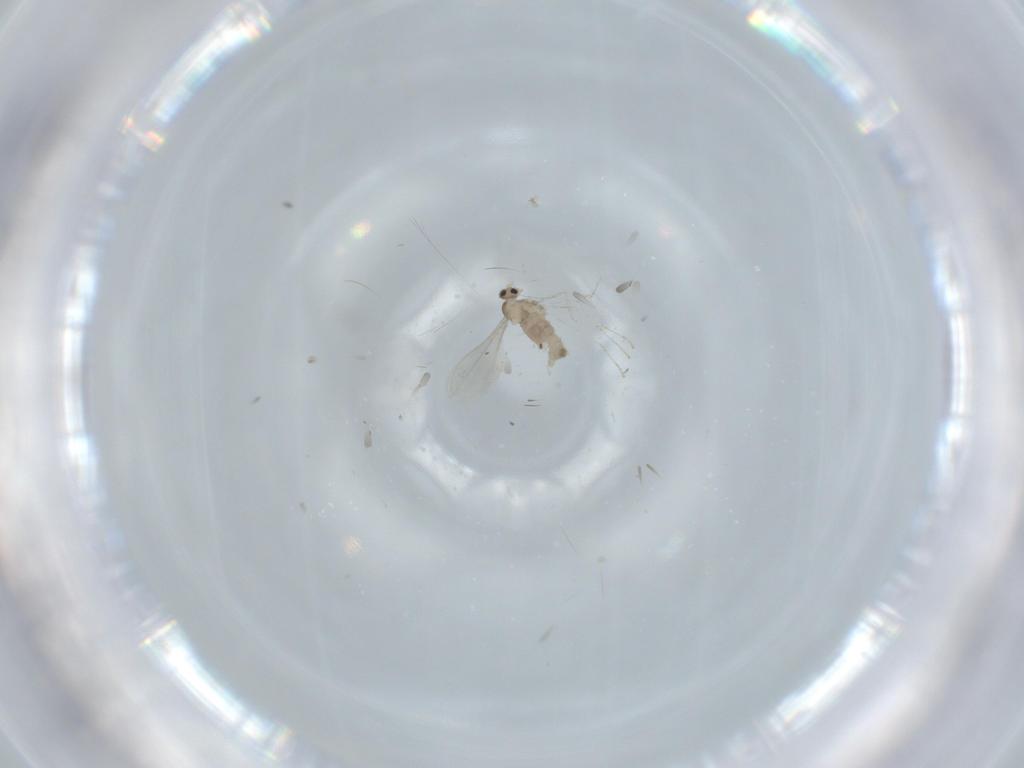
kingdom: Animalia
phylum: Arthropoda
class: Insecta
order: Diptera
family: Cecidomyiidae
